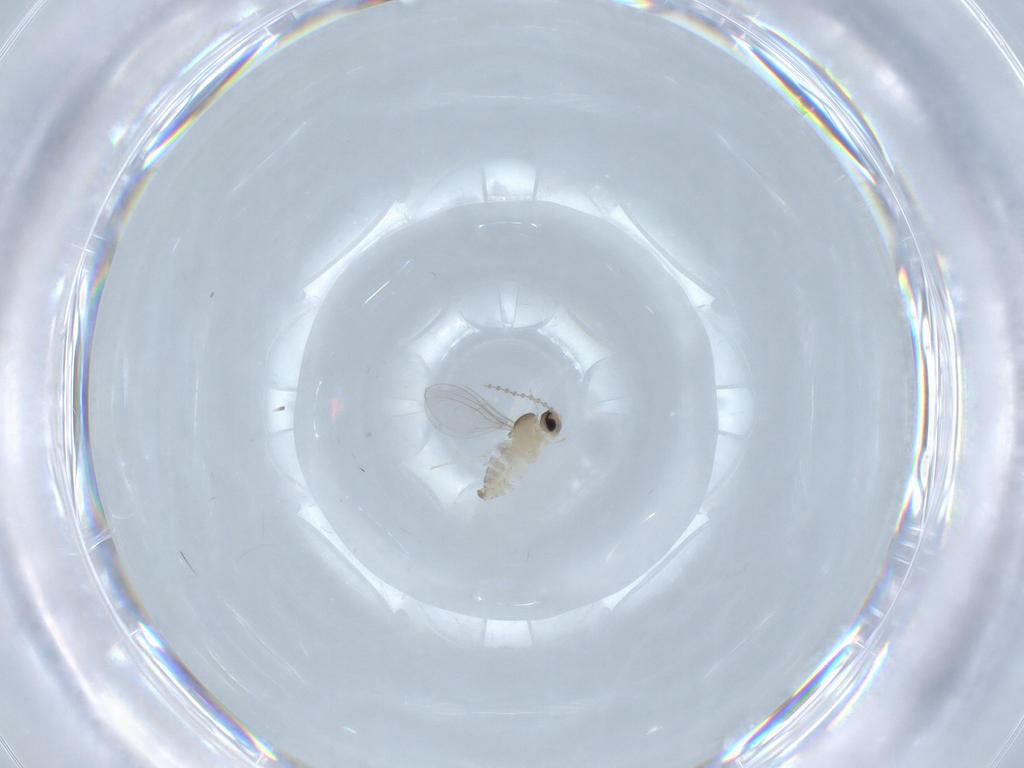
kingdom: Animalia
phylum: Arthropoda
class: Insecta
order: Diptera
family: Cecidomyiidae
